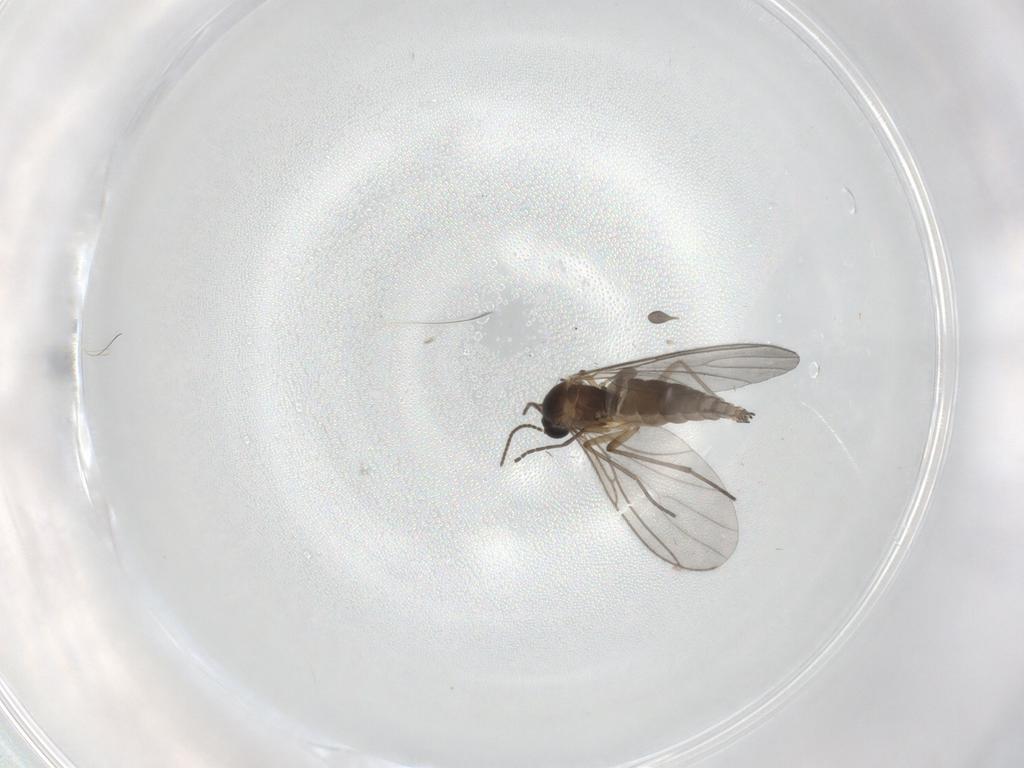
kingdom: Animalia
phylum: Arthropoda
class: Insecta
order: Diptera
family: Sciaridae
